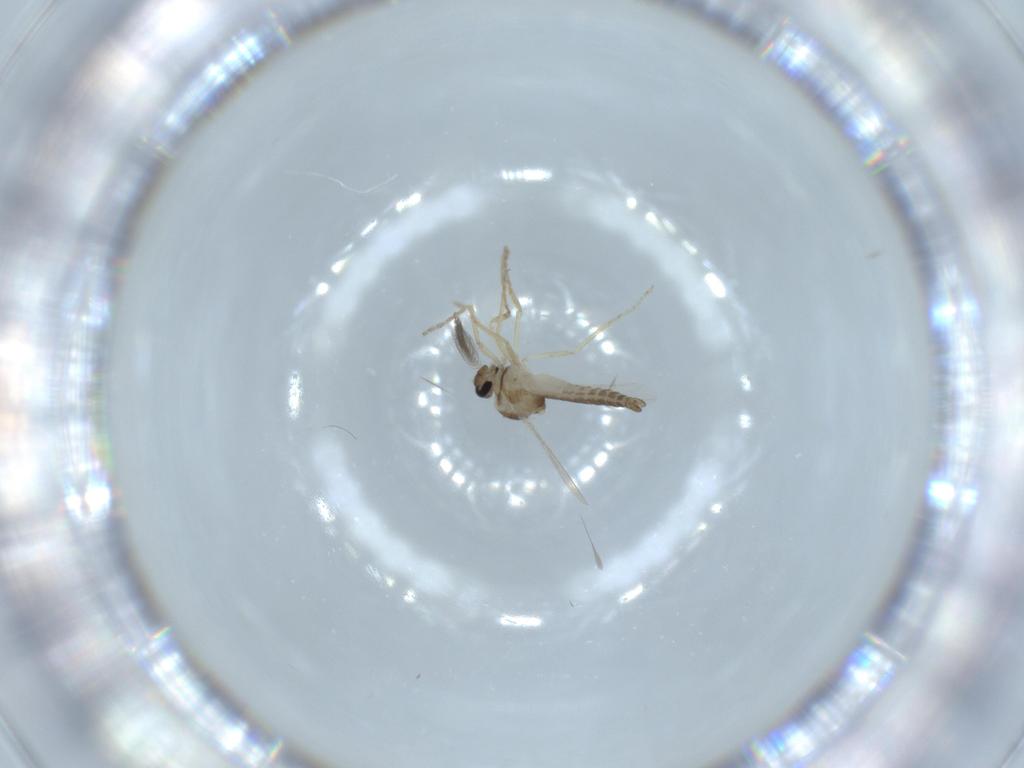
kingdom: Animalia
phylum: Arthropoda
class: Insecta
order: Diptera
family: Ceratopogonidae
